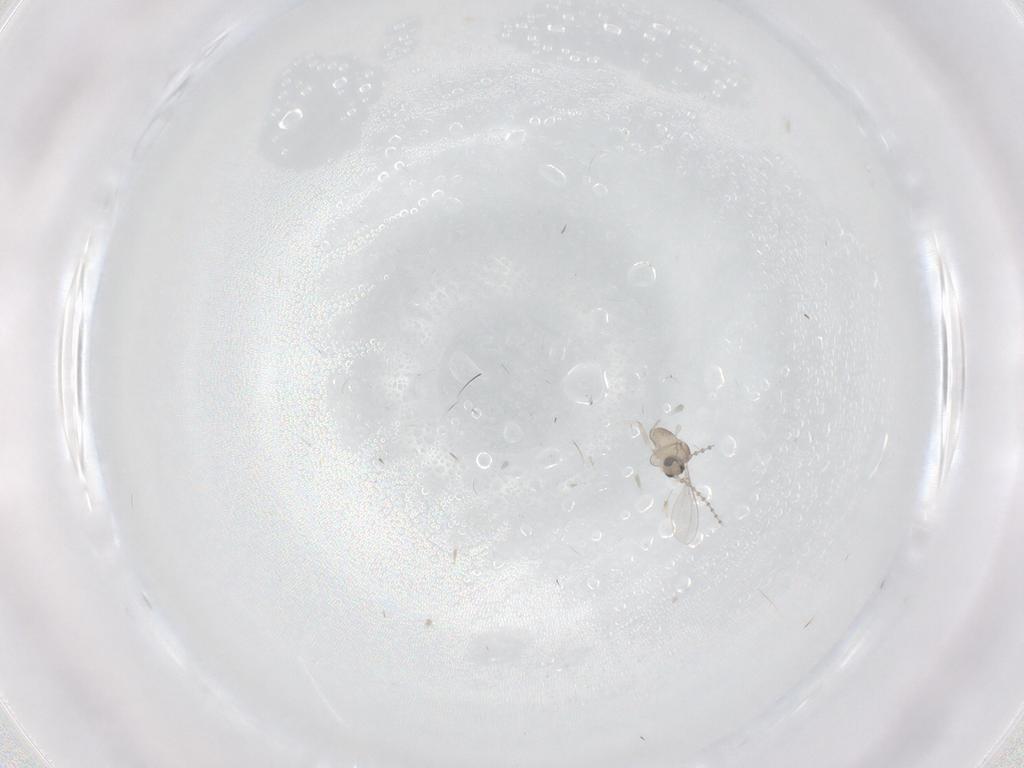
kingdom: Animalia
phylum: Arthropoda
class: Insecta
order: Diptera
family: Cecidomyiidae
